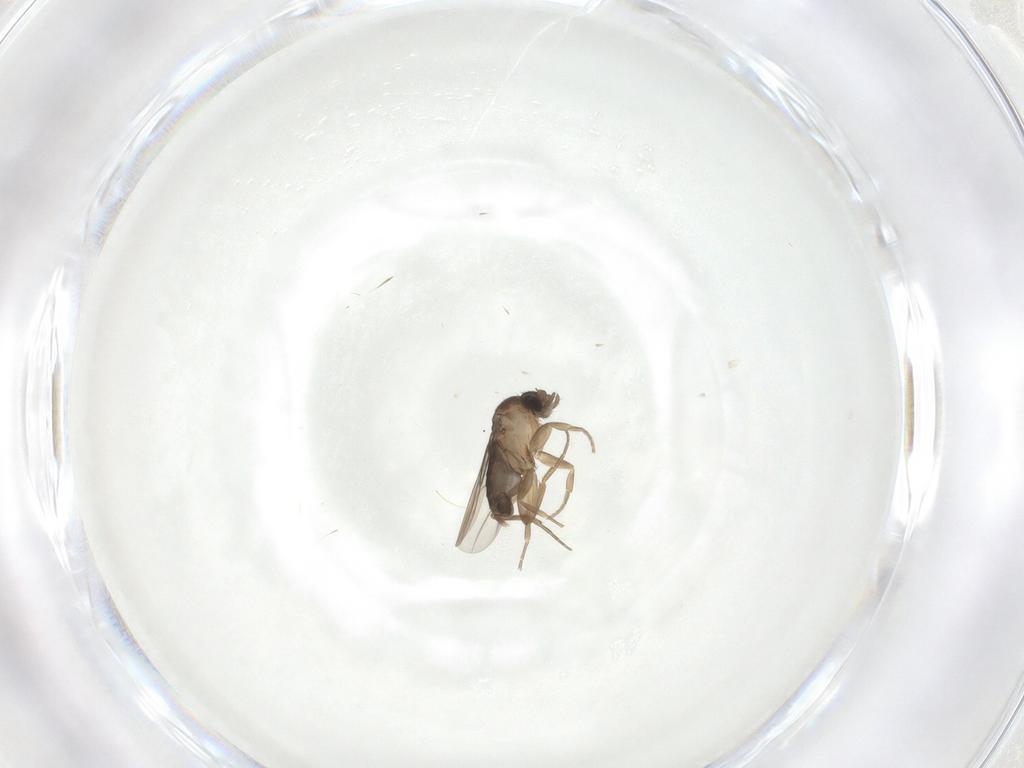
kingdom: Animalia
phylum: Arthropoda
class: Insecta
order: Diptera
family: Phoridae
